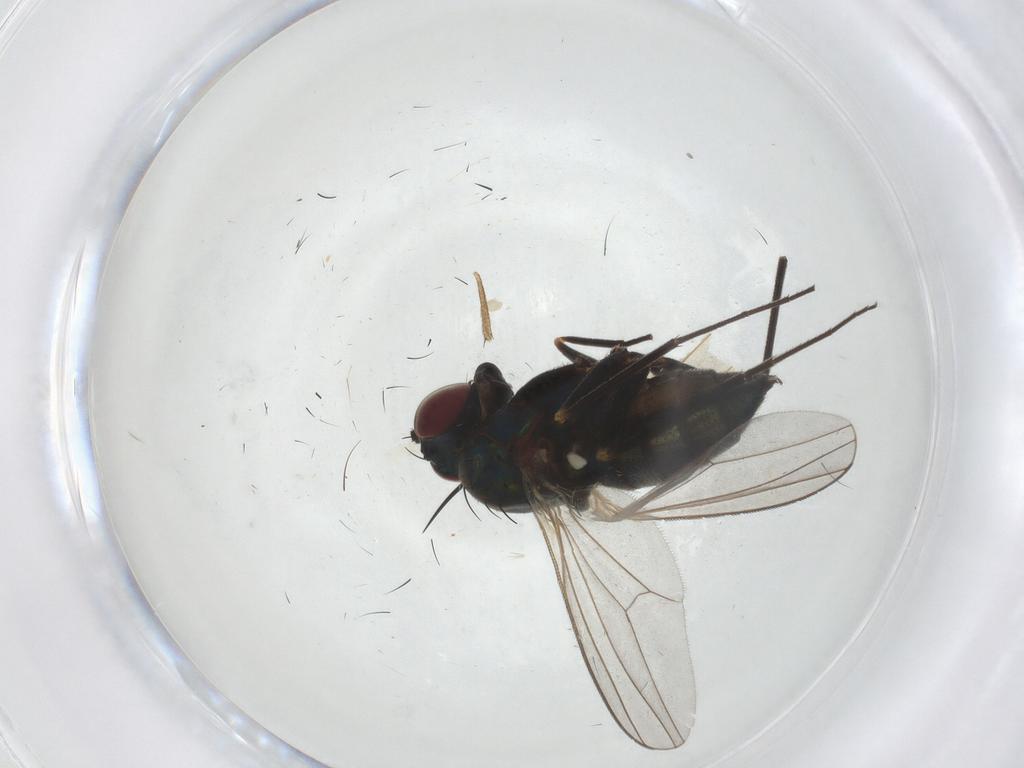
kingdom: Animalia
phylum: Arthropoda
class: Insecta
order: Diptera
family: Dolichopodidae
